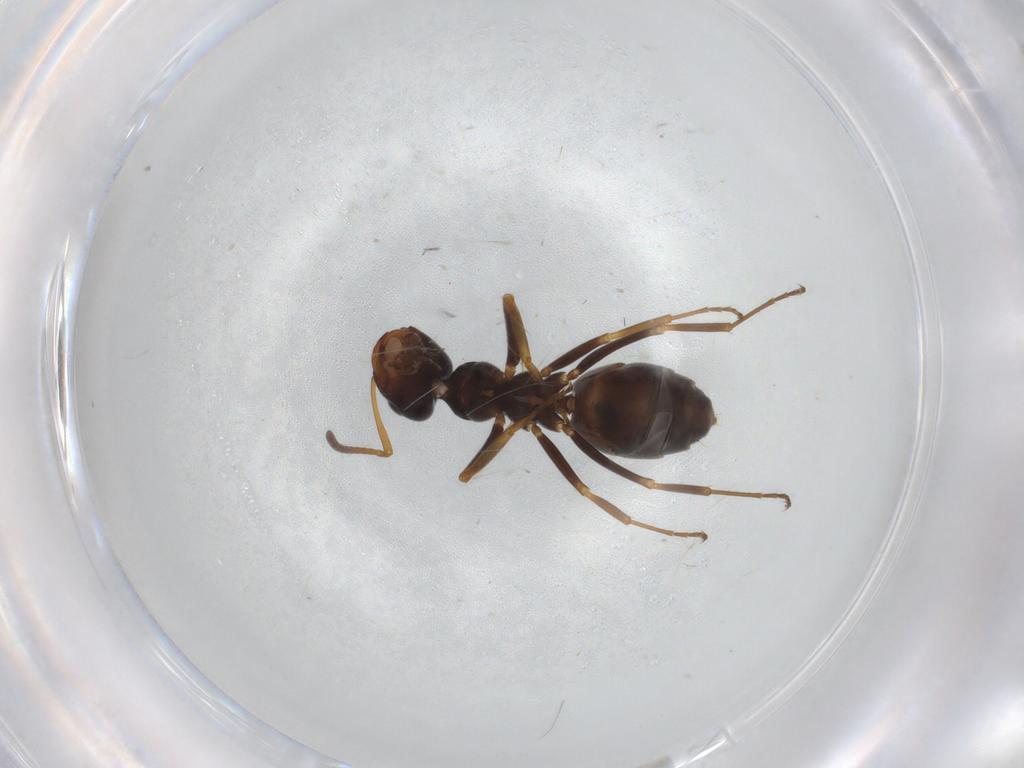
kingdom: Animalia
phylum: Arthropoda
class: Insecta
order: Hymenoptera
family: Formicidae
